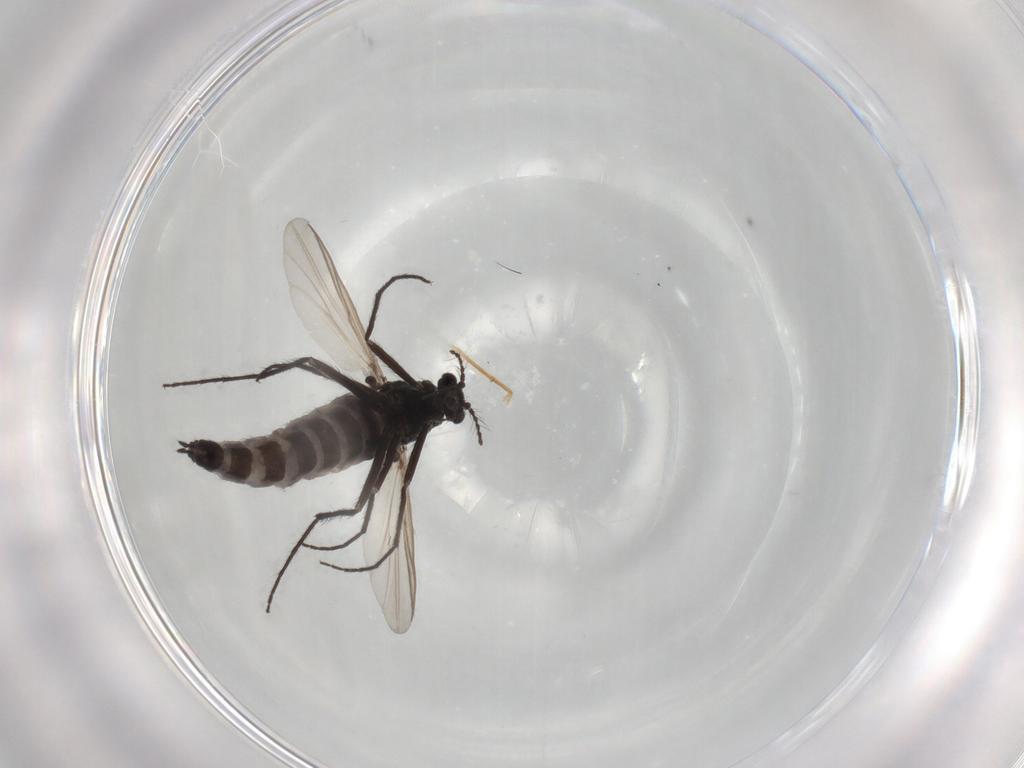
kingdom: Animalia
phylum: Arthropoda
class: Insecta
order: Diptera
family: Chironomidae
